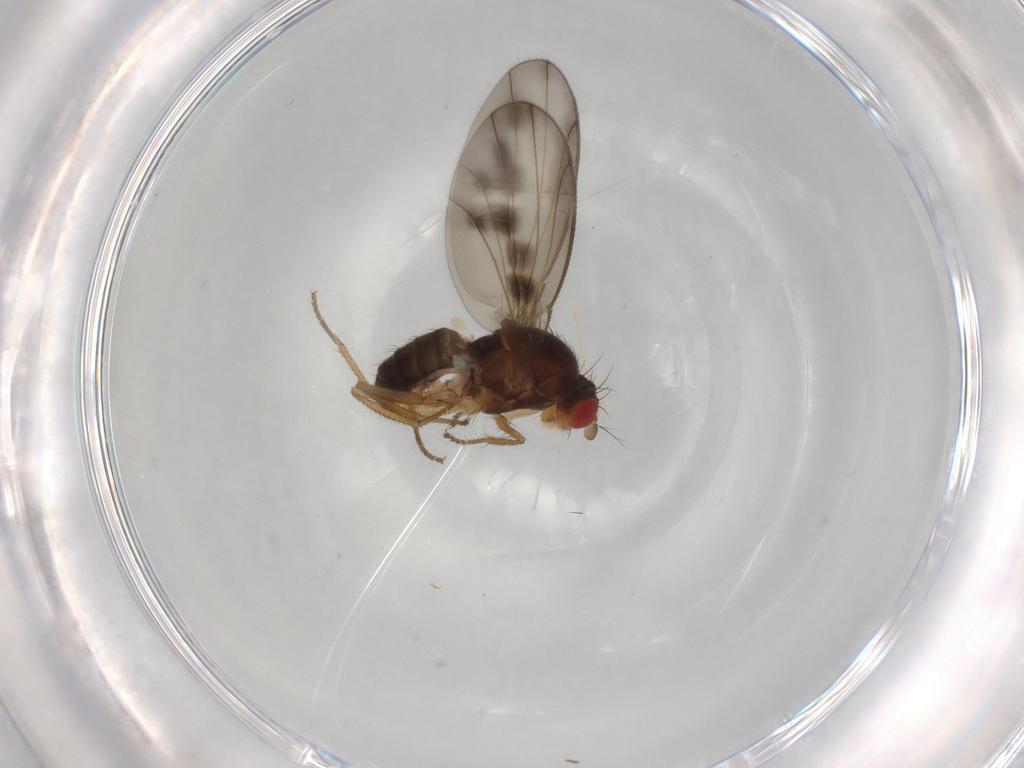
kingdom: Animalia
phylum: Arthropoda
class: Insecta
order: Diptera
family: Drosophilidae
